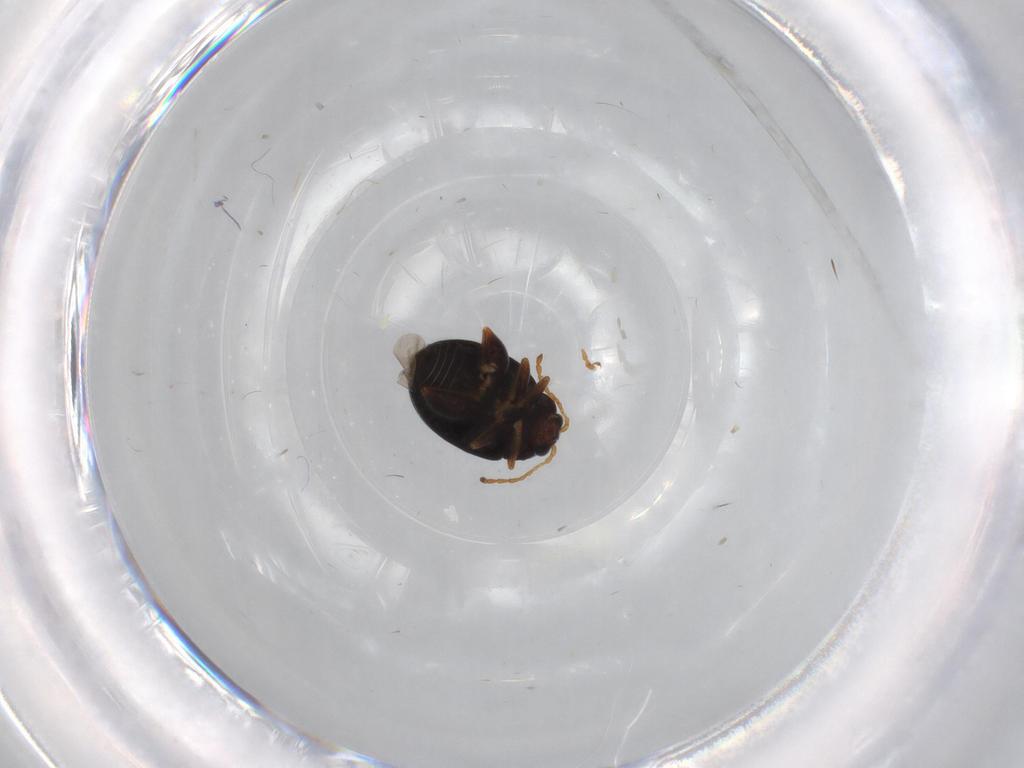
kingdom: Animalia
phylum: Arthropoda
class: Insecta
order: Coleoptera
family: Chrysomelidae
